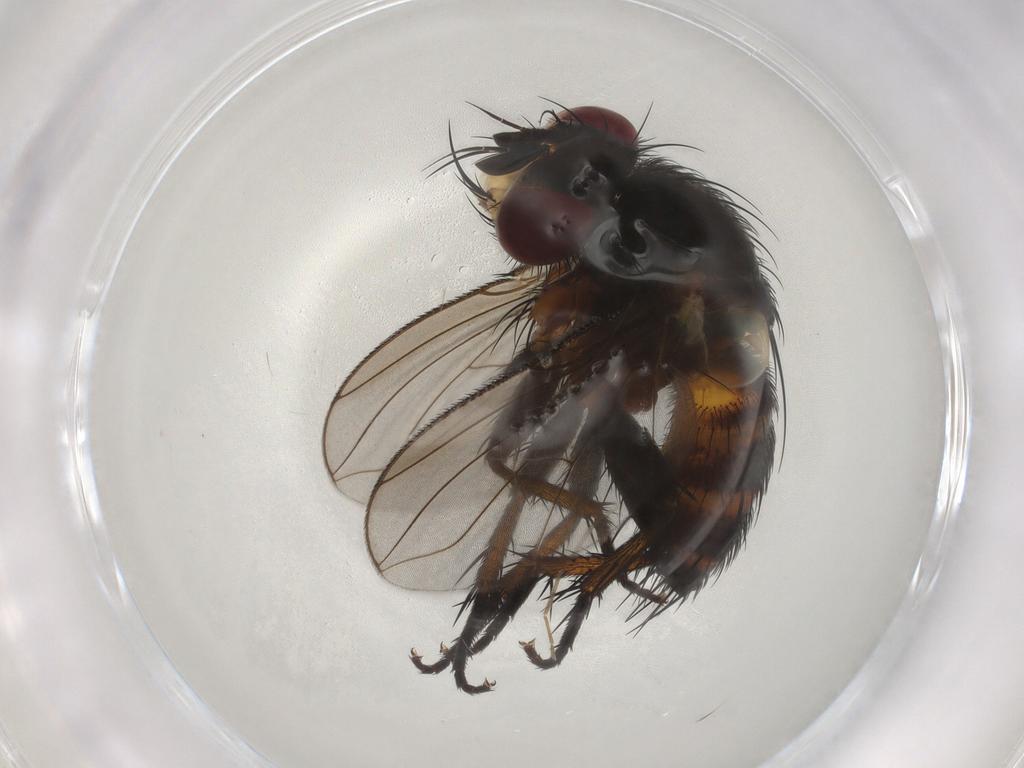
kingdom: Animalia
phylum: Arthropoda
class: Insecta
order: Diptera
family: Tachinidae
